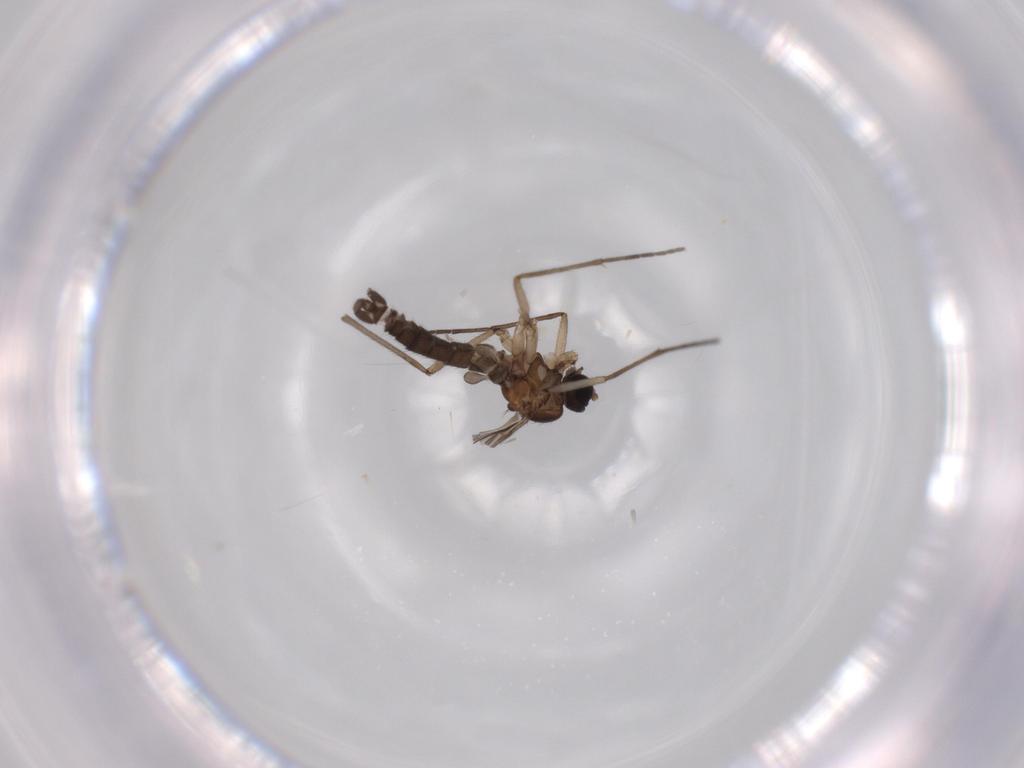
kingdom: Animalia
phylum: Arthropoda
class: Insecta
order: Diptera
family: Sciaridae
